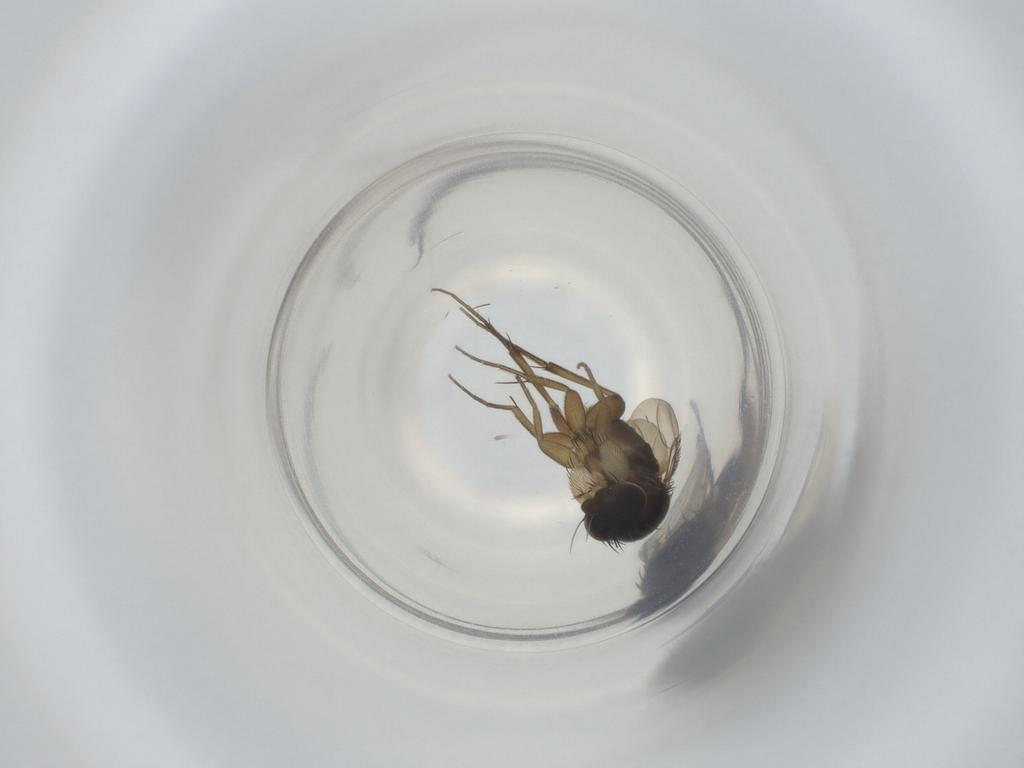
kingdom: Animalia
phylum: Arthropoda
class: Insecta
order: Diptera
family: Phoridae
